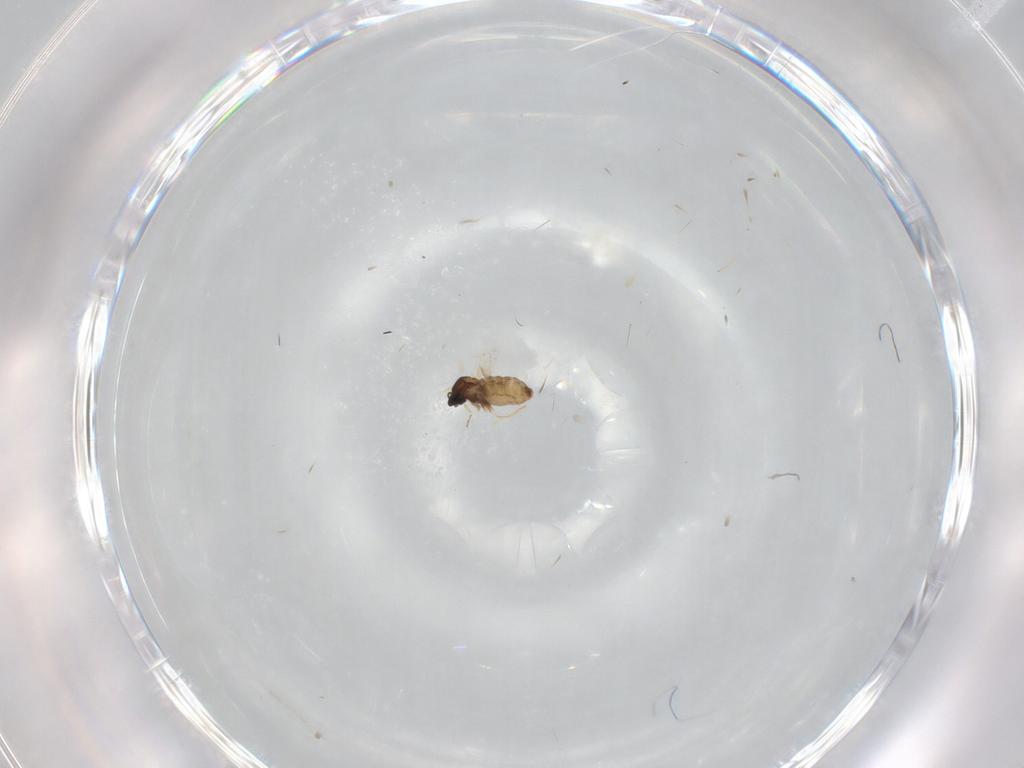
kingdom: Animalia
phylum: Arthropoda
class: Insecta
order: Diptera
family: Cecidomyiidae
